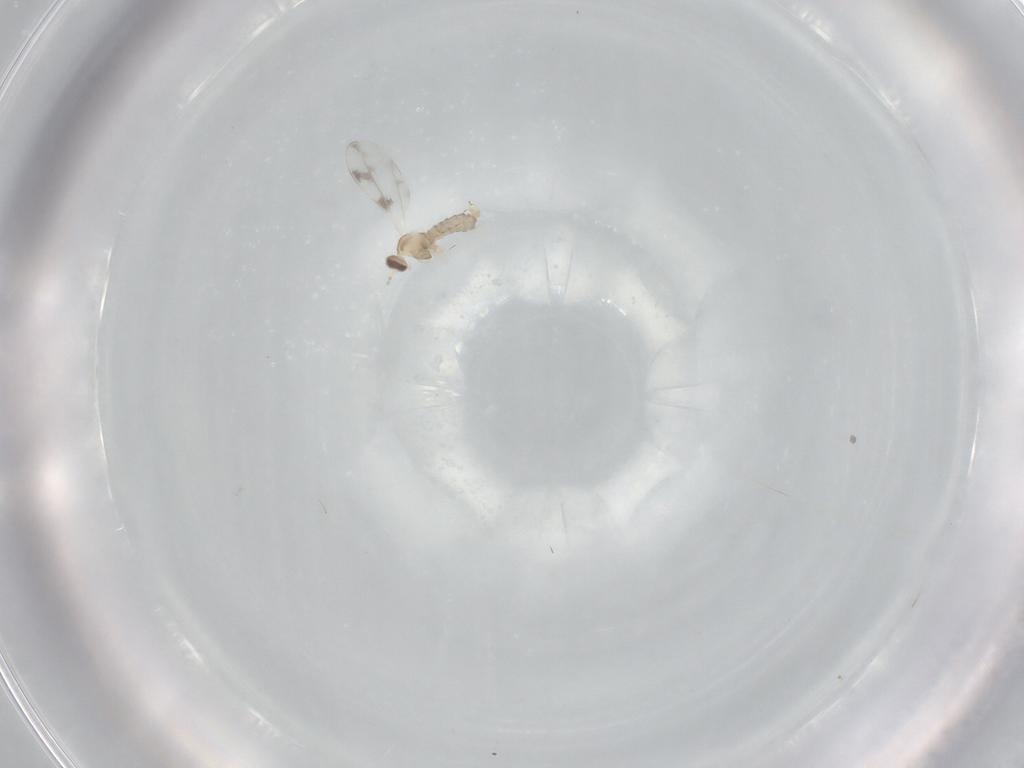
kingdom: Animalia
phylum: Arthropoda
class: Insecta
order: Diptera
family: Cecidomyiidae
